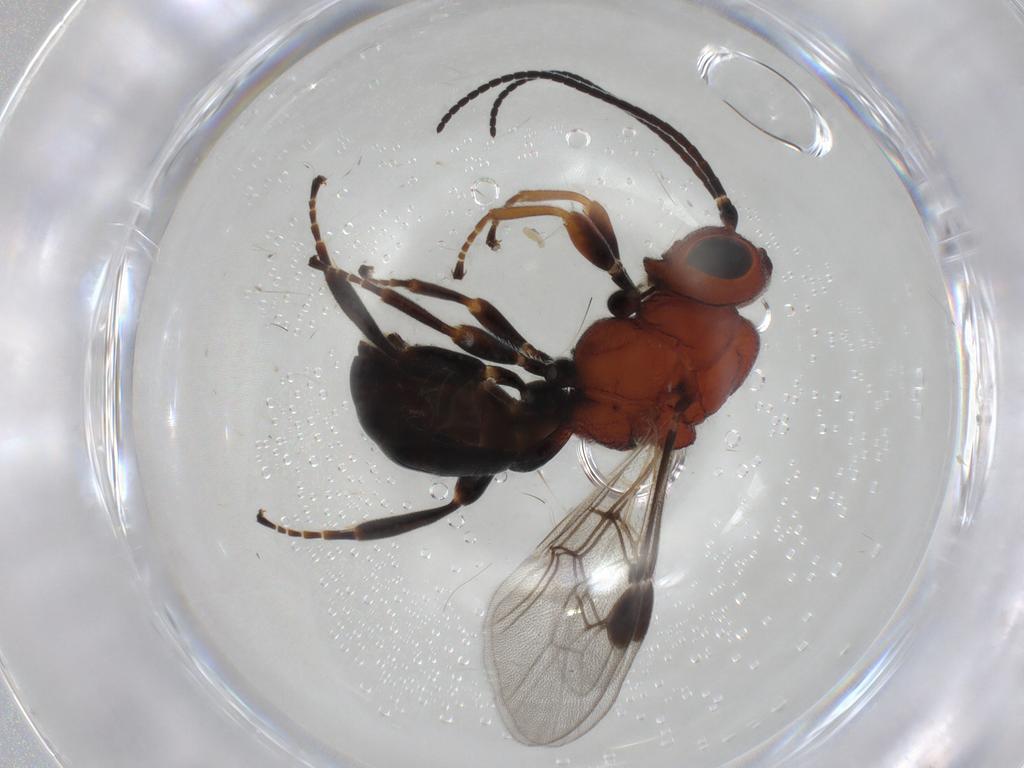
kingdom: Animalia
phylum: Arthropoda
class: Insecta
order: Hymenoptera
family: Braconidae
